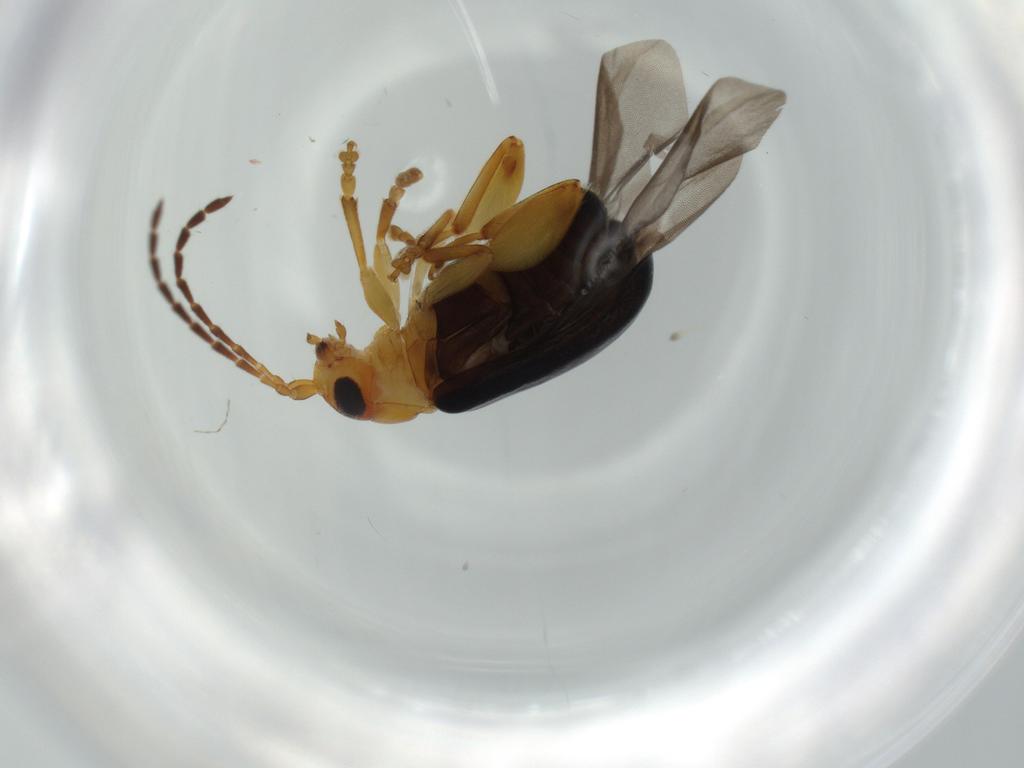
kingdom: Animalia
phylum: Arthropoda
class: Insecta
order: Coleoptera
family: Chrysomelidae
